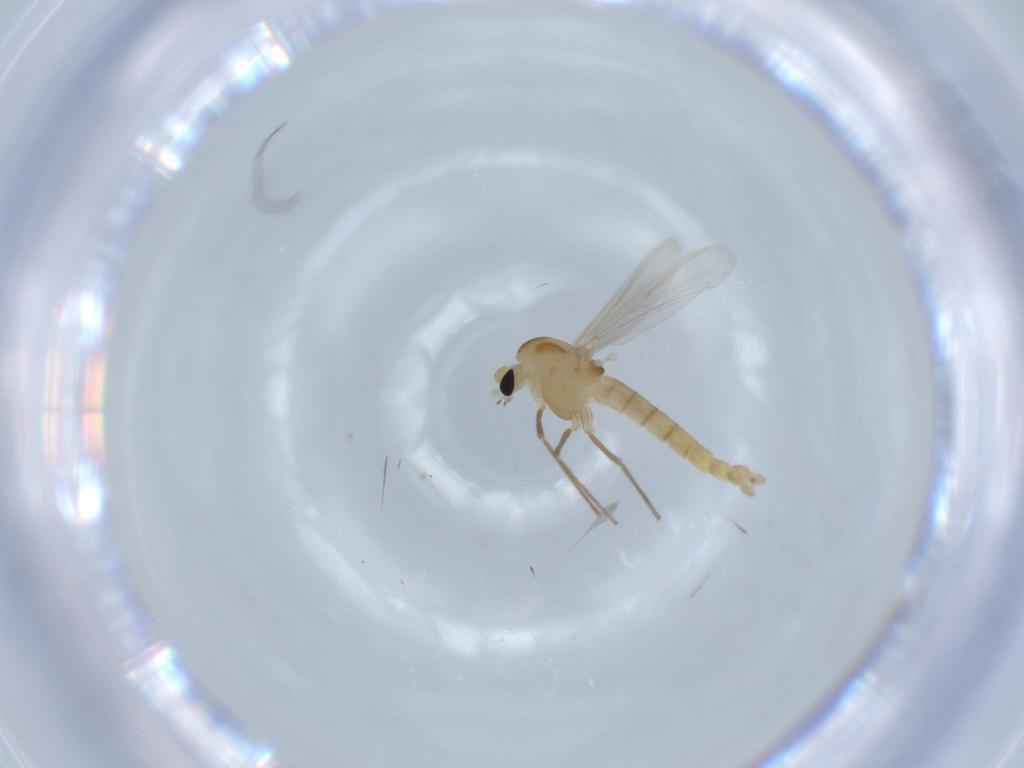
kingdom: Animalia
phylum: Arthropoda
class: Insecta
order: Diptera
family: Chironomidae
